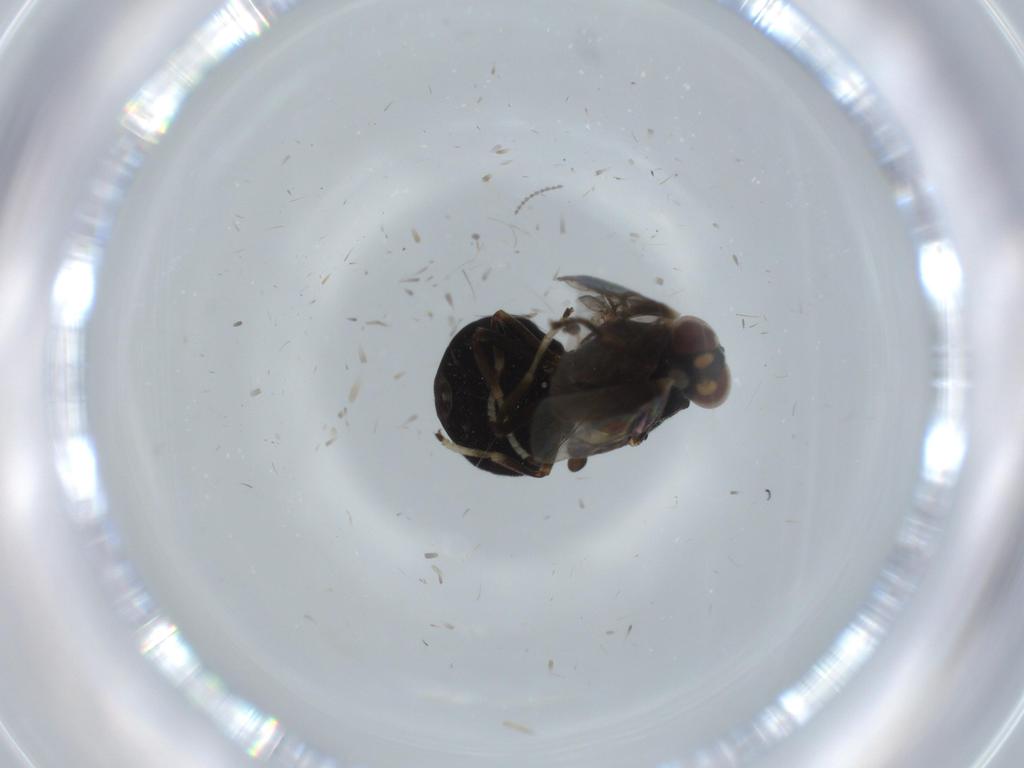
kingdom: Animalia
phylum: Arthropoda
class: Insecta
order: Diptera
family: Stratiomyidae
